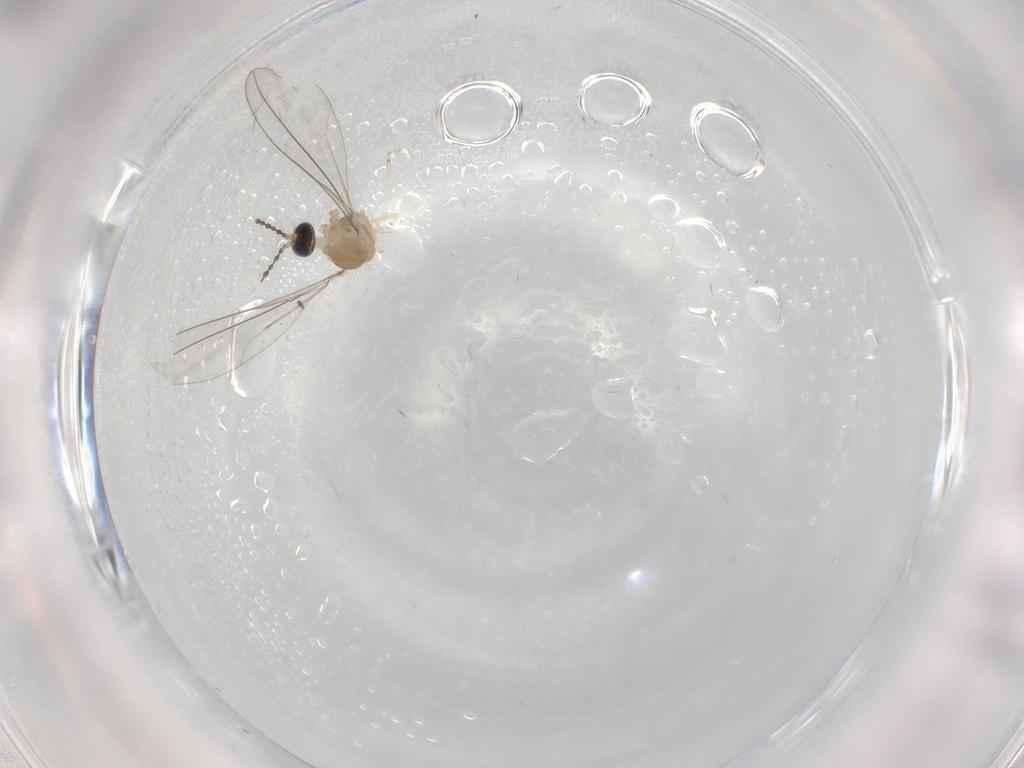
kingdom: Animalia
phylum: Arthropoda
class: Insecta
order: Diptera
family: Cecidomyiidae
